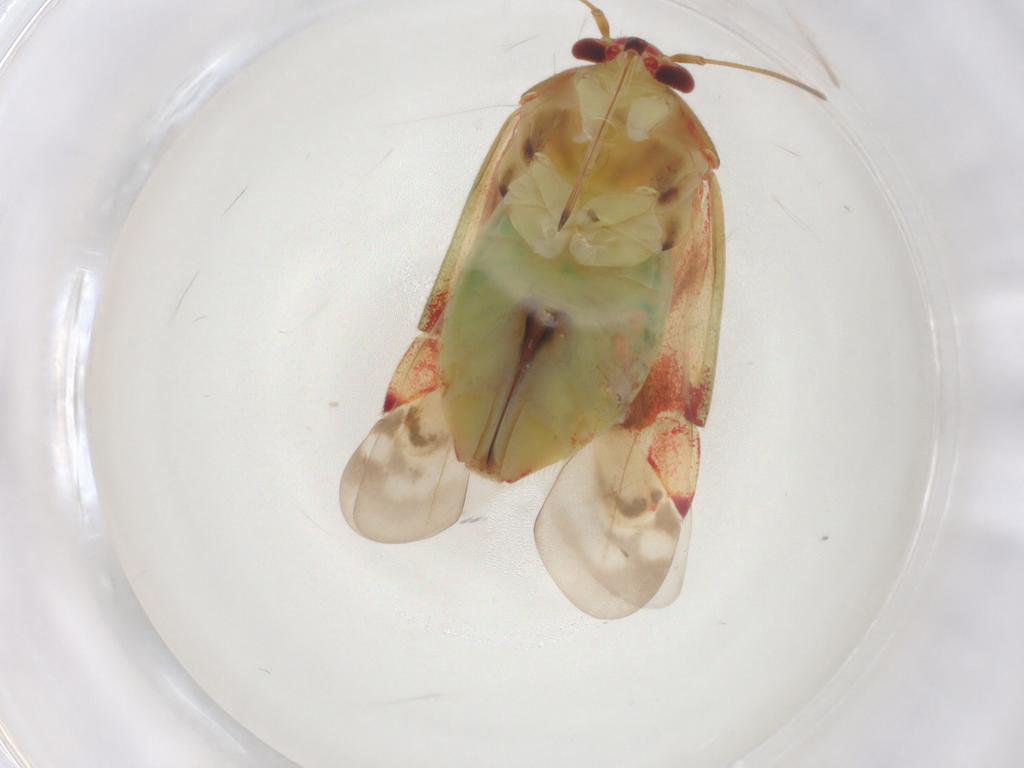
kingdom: Animalia
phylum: Arthropoda
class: Insecta
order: Hemiptera
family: Miridae
